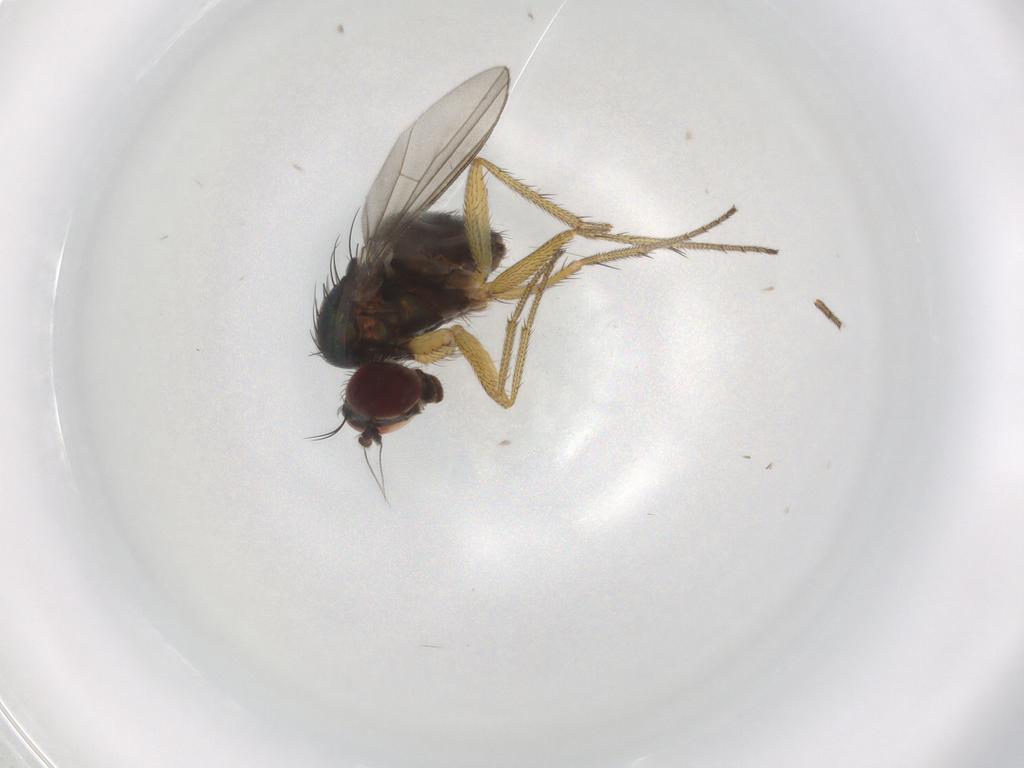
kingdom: Animalia
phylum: Arthropoda
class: Insecta
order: Diptera
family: Dolichopodidae
